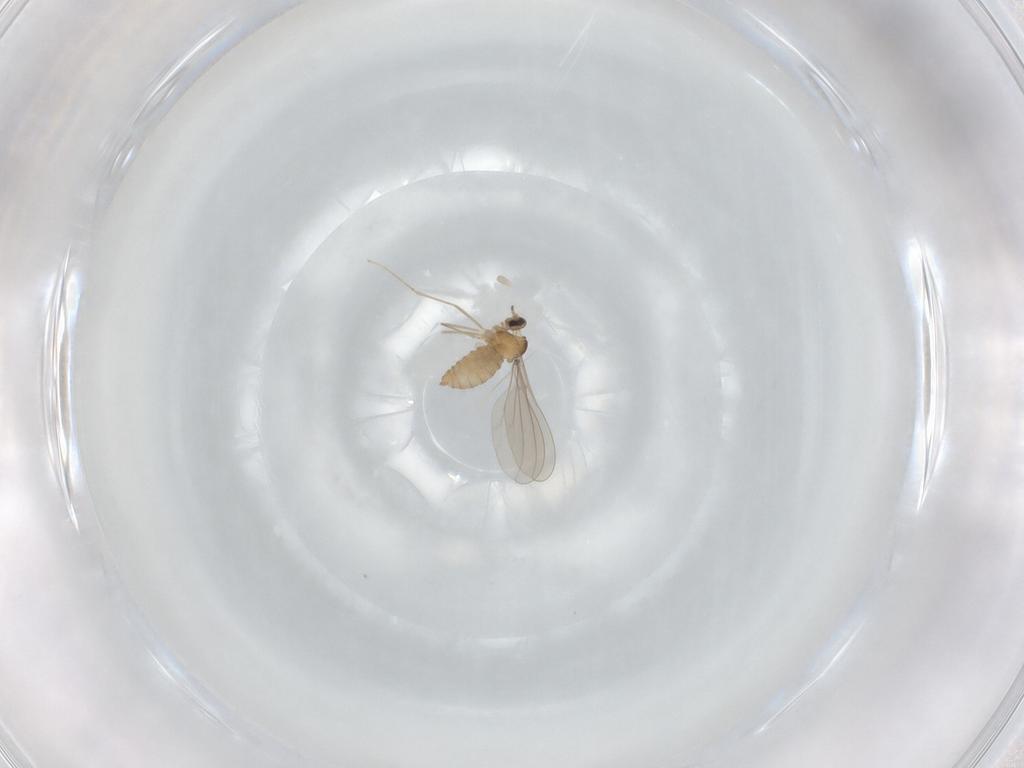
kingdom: Animalia
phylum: Arthropoda
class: Insecta
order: Diptera
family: Cecidomyiidae
